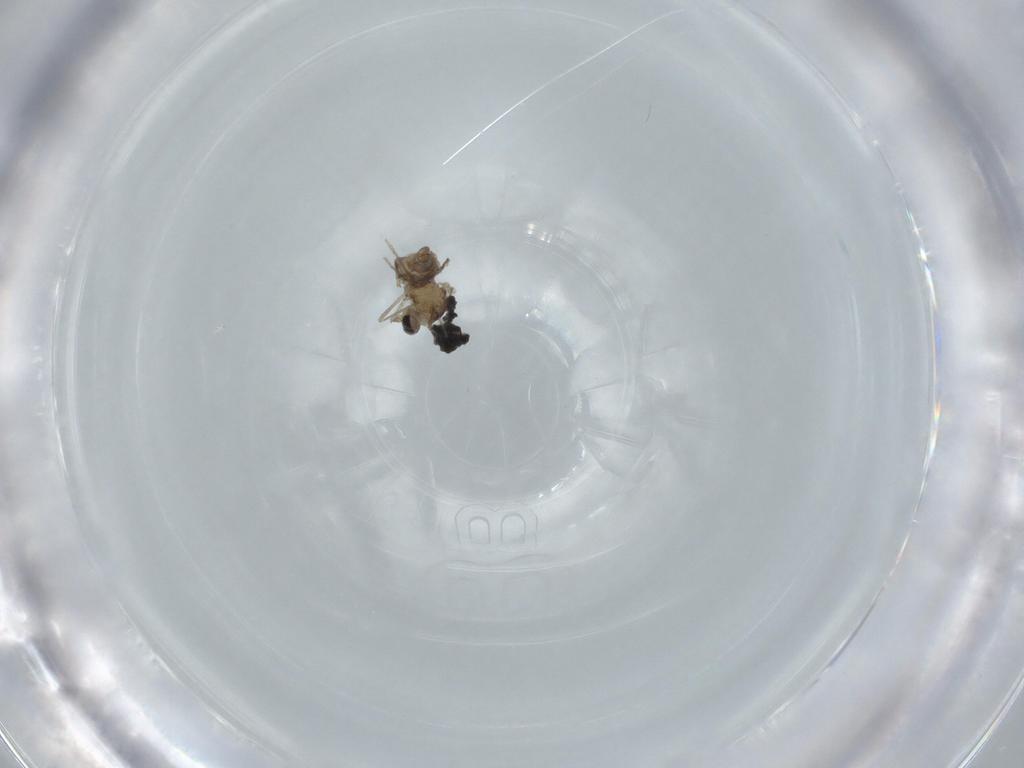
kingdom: Animalia
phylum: Arthropoda
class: Insecta
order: Diptera
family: Cecidomyiidae
